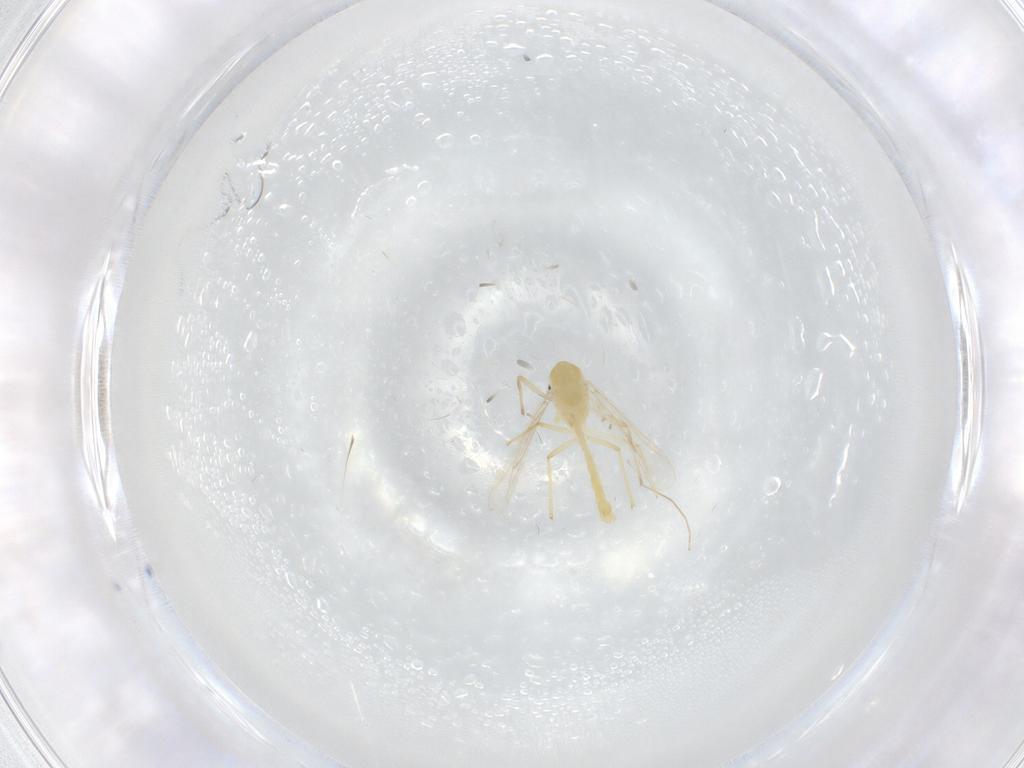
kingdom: Animalia
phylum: Arthropoda
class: Insecta
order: Diptera
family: Chironomidae
